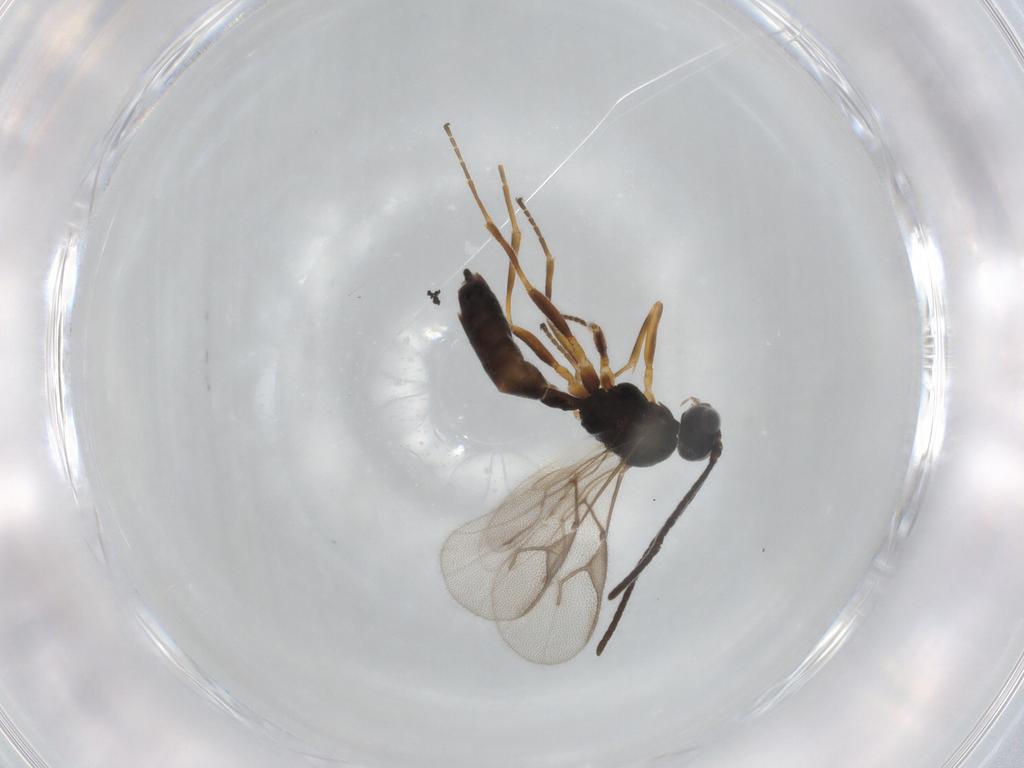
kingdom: Animalia
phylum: Arthropoda
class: Insecta
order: Hymenoptera
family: Braconidae
